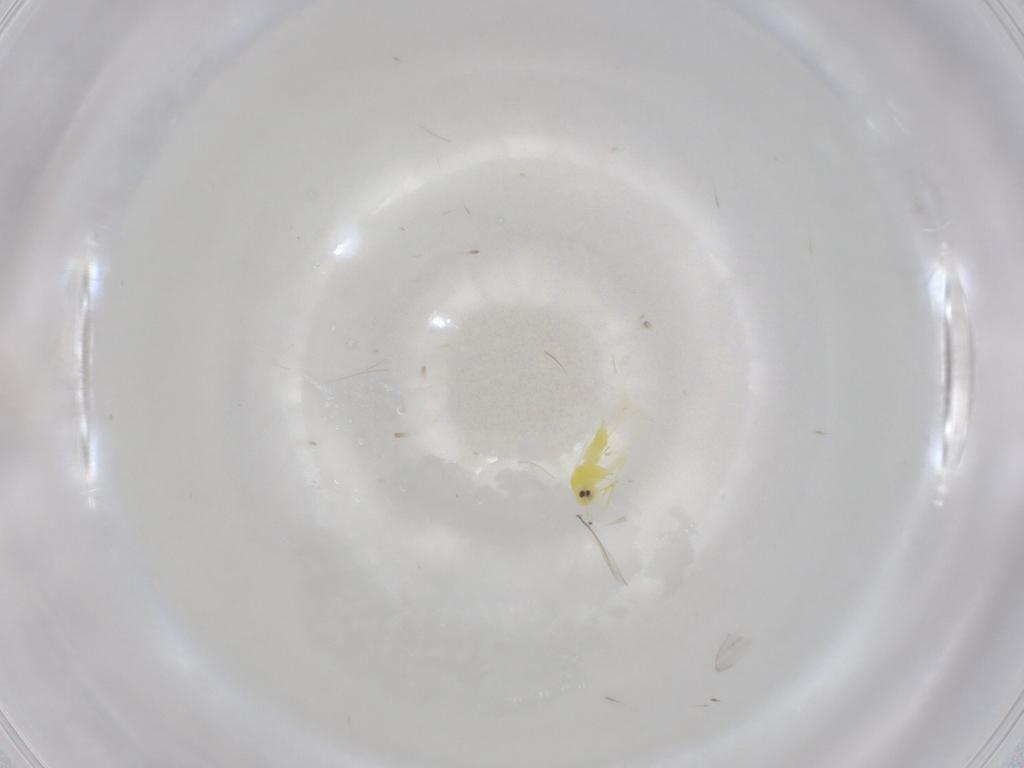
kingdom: Animalia
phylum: Arthropoda
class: Insecta
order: Hemiptera
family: Aleyrodidae
